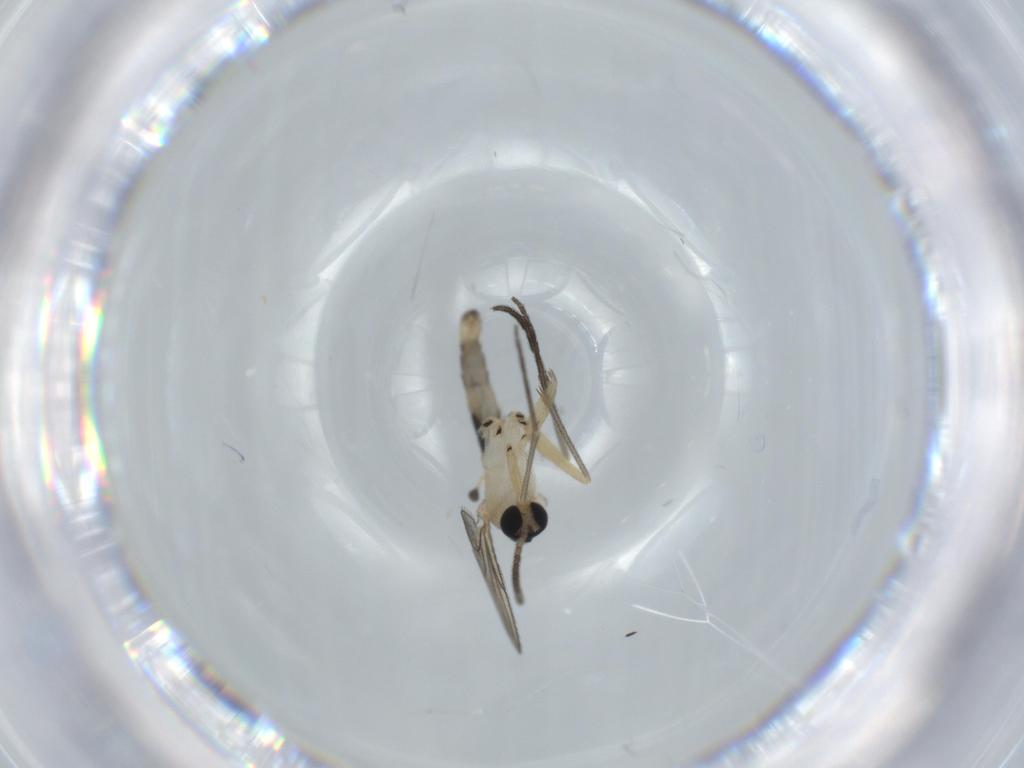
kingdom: Animalia
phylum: Arthropoda
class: Insecta
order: Diptera
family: Sciaridae
